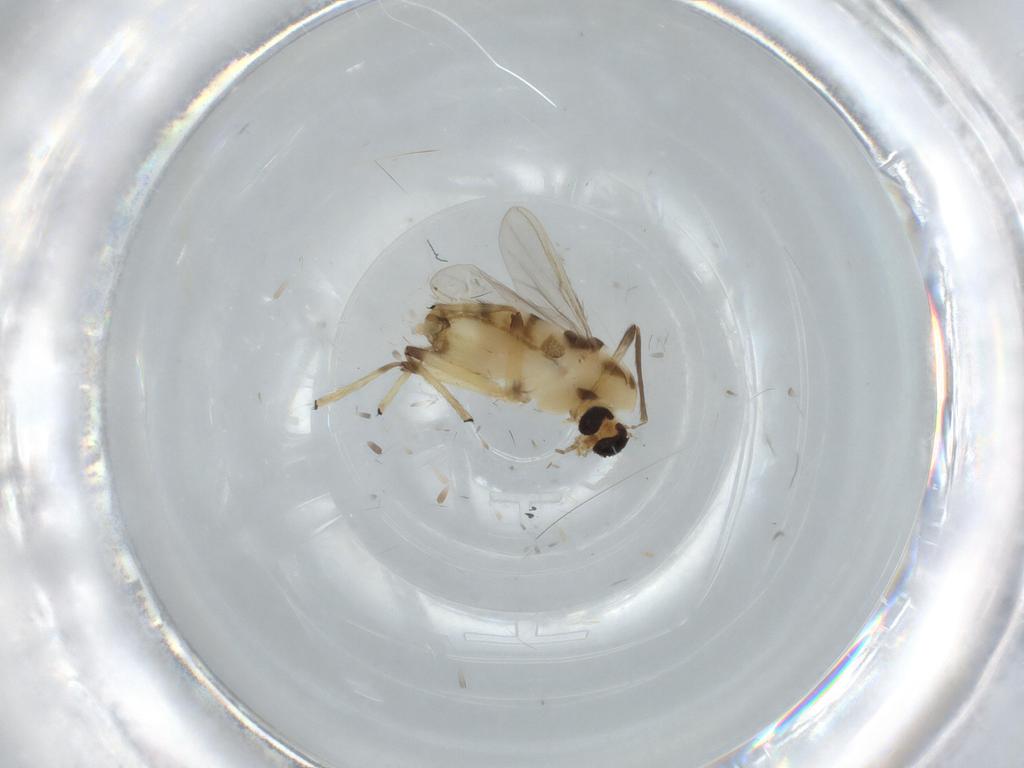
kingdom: Animalia
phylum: Arthropoda
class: Insecta
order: Diptera
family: Chironomidae
